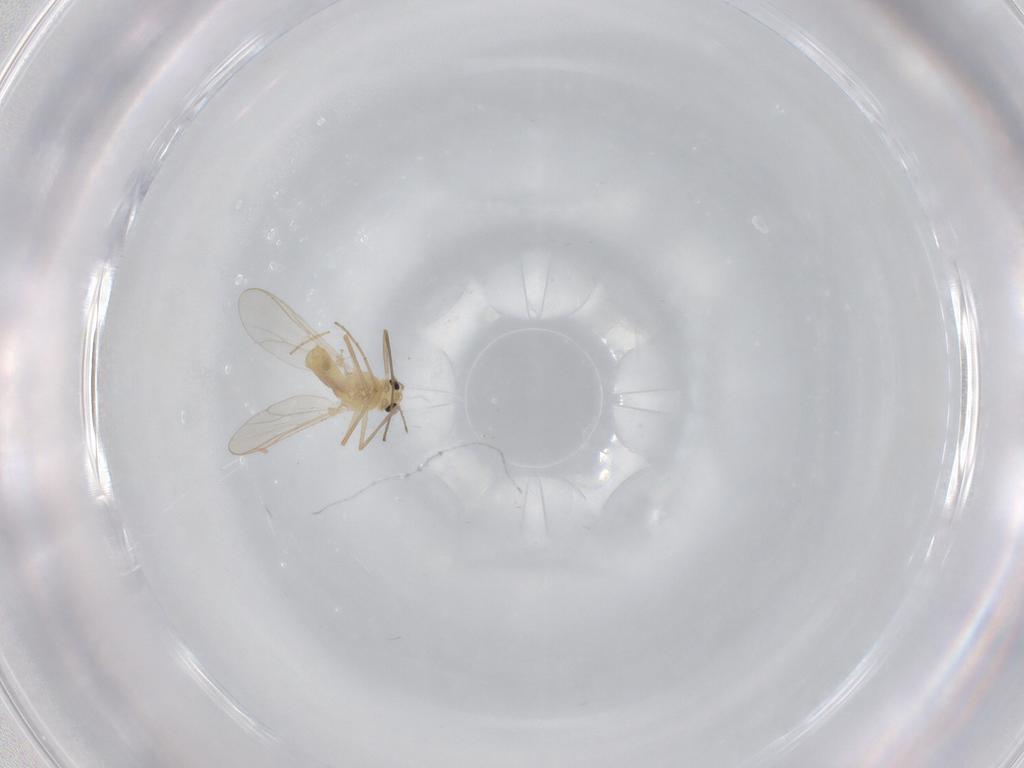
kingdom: Animalia
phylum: Arthropoda
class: Insecta
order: Diptera
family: Chironomidae
